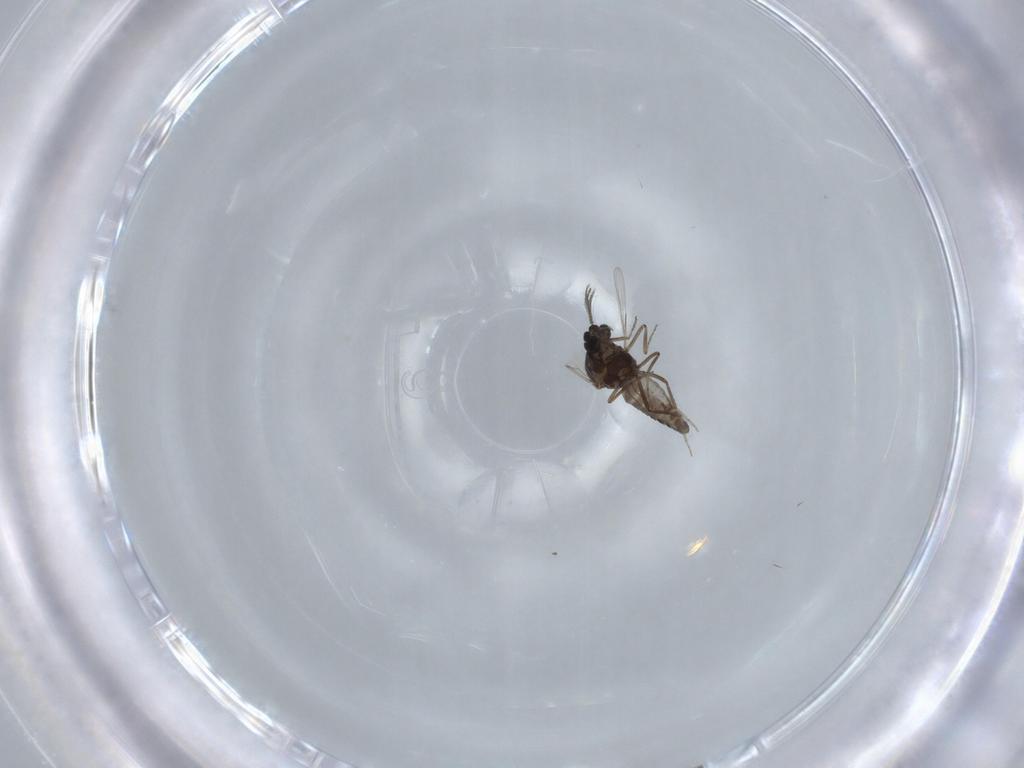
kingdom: Animalia
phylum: Arthropoda
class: Insecta
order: Diptera
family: Ceratopogonidae
